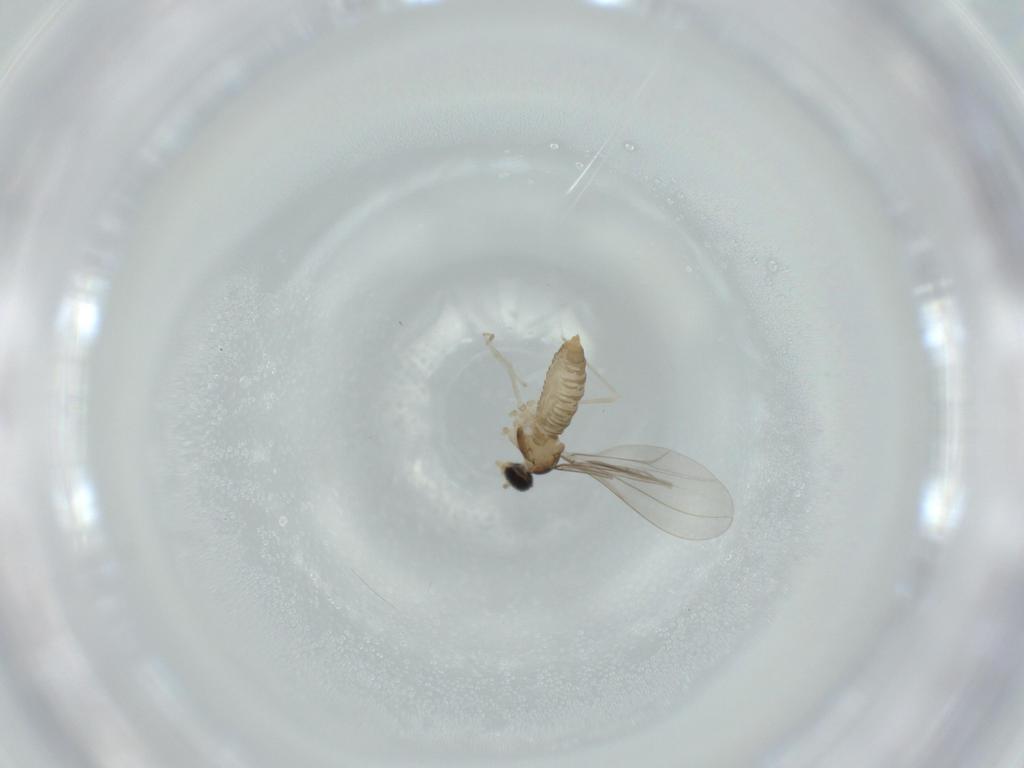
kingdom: Animalia
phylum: Arthropoda
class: Insecta
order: Diptera
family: Cecidomyiidae
